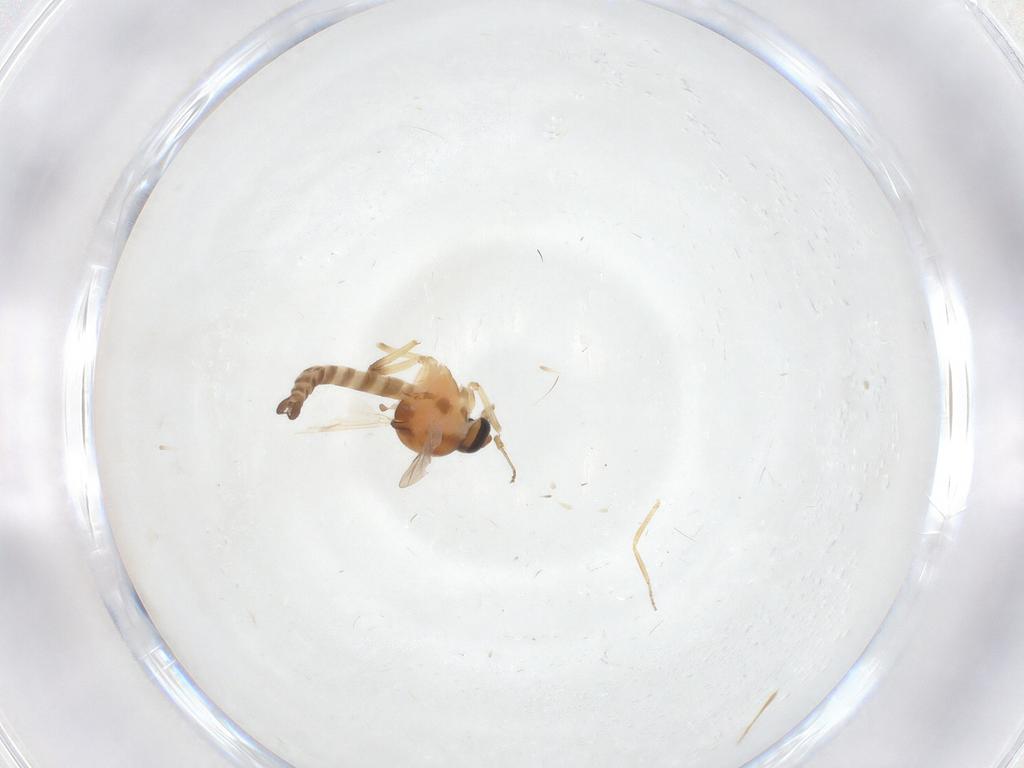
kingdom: Animalia
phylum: Arthropoda
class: Insecta
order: Diptera
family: Ceratopogonidae
